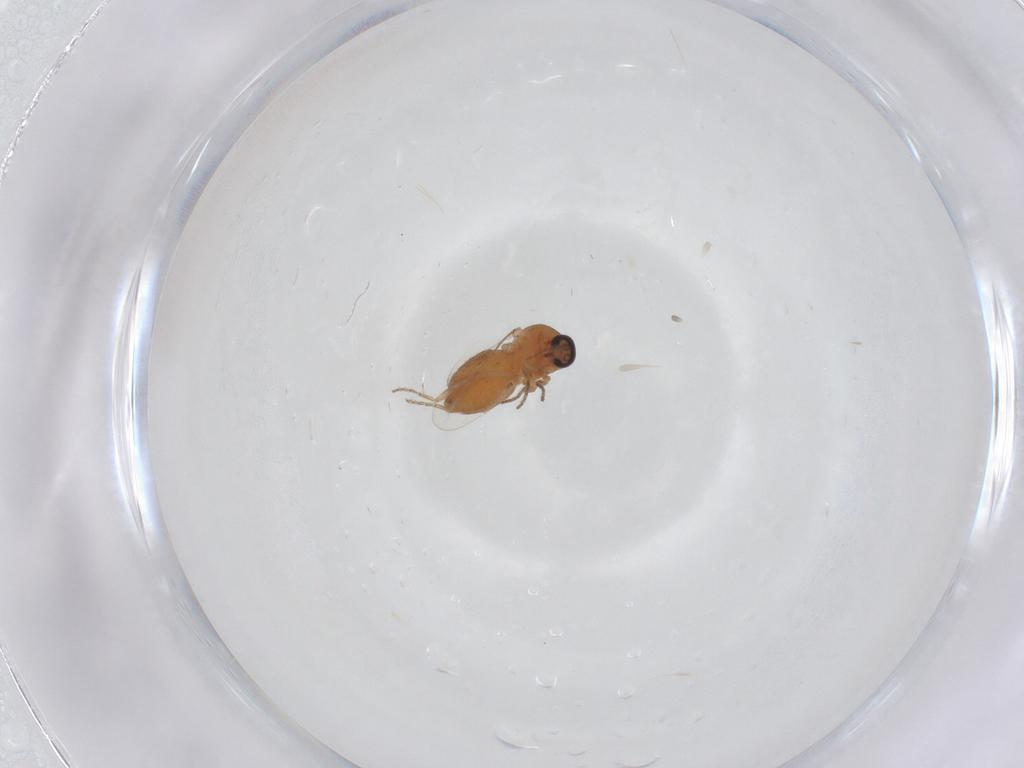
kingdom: Animalia
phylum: Arthropoda
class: Insecta
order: Diptera
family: Ceratopogonidae
